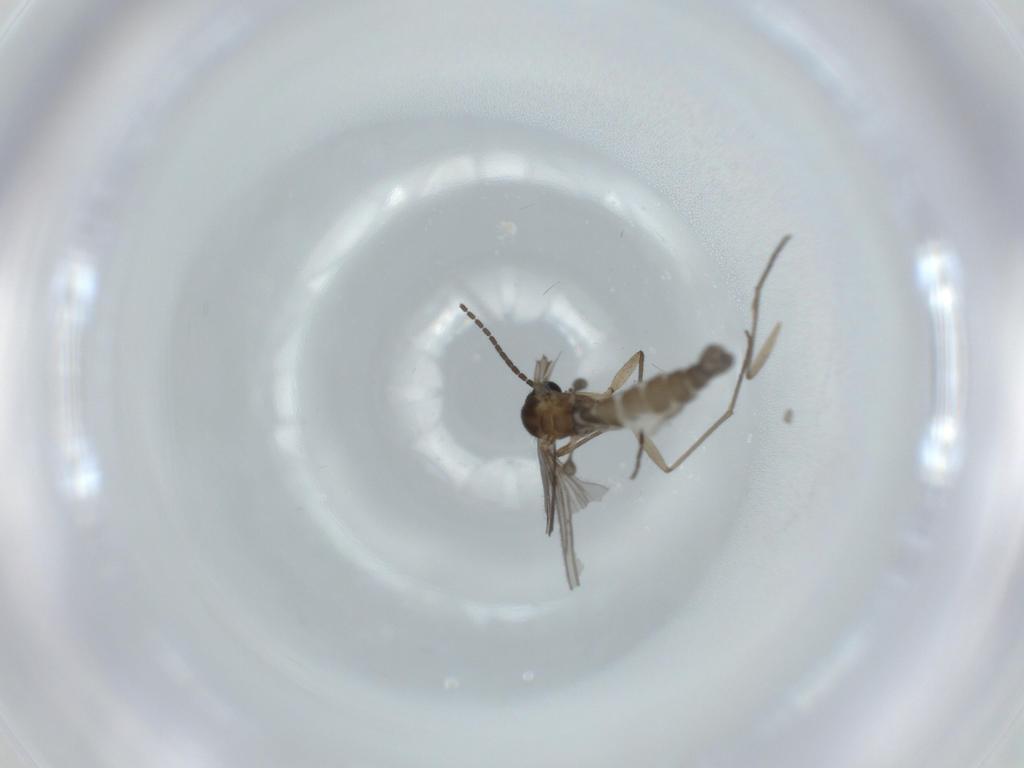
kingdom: Animalia
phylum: Arthropoda
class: Insecta
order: Diptera
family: Sciaridae
